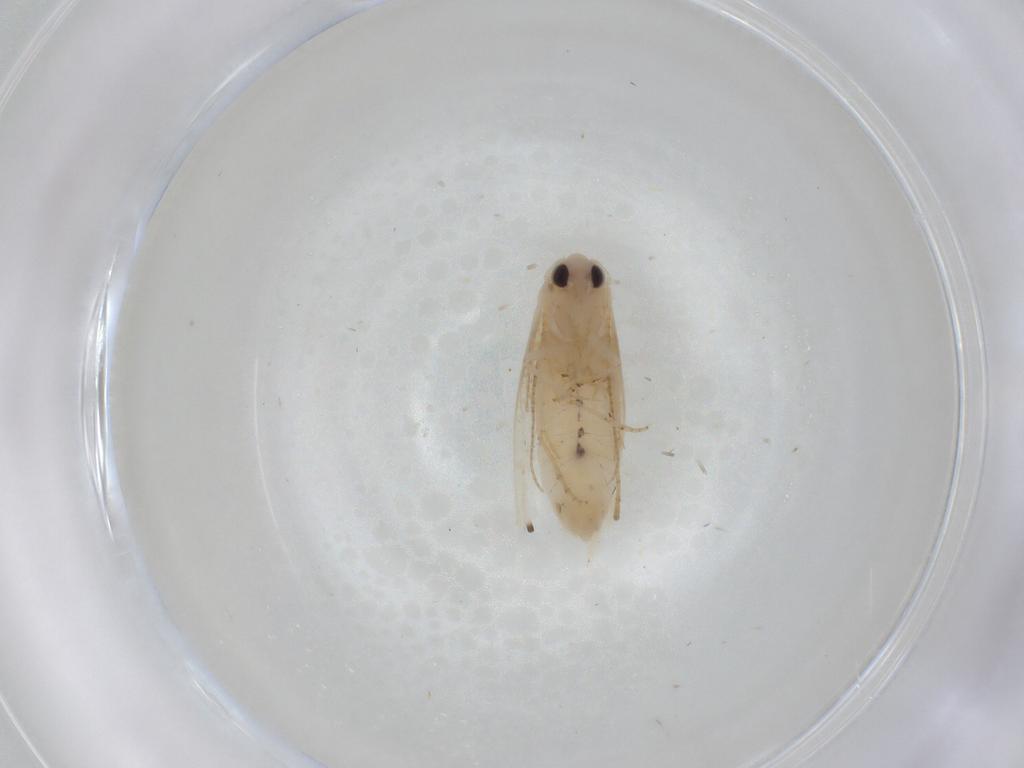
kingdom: Animalia
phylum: Arthropoda
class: Insecta
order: Lepidoptera
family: Bucculatricidae
